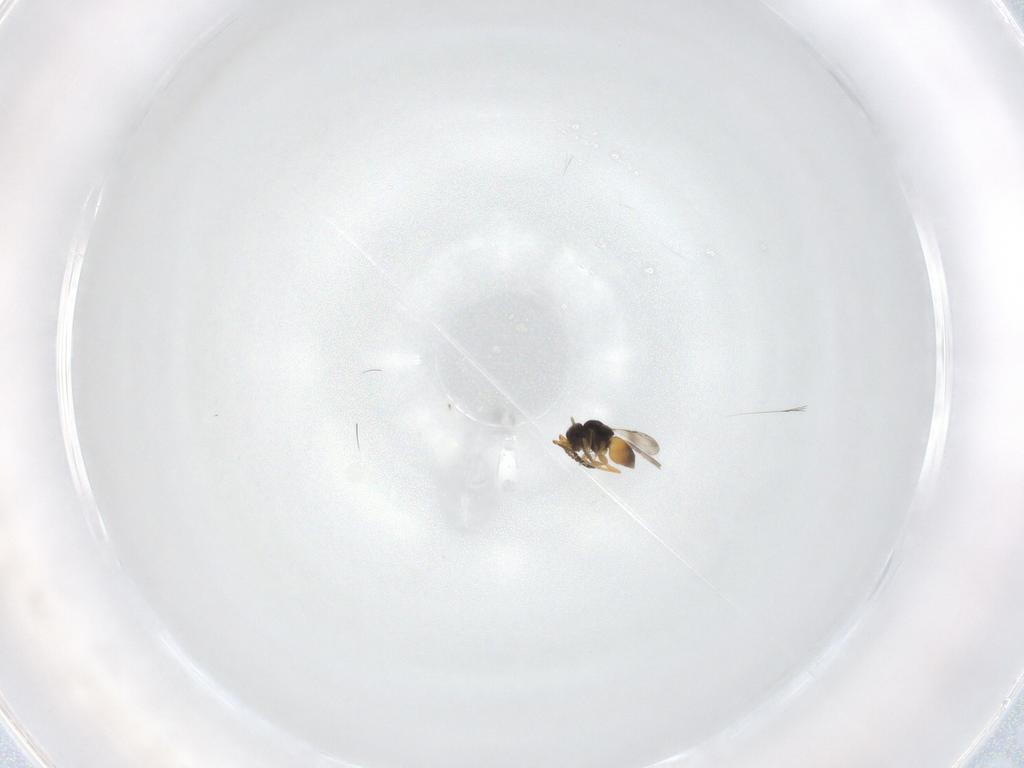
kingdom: Animalia
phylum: Arthropoda
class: Insecta
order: Hymenoptera
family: Ceraphronidae
